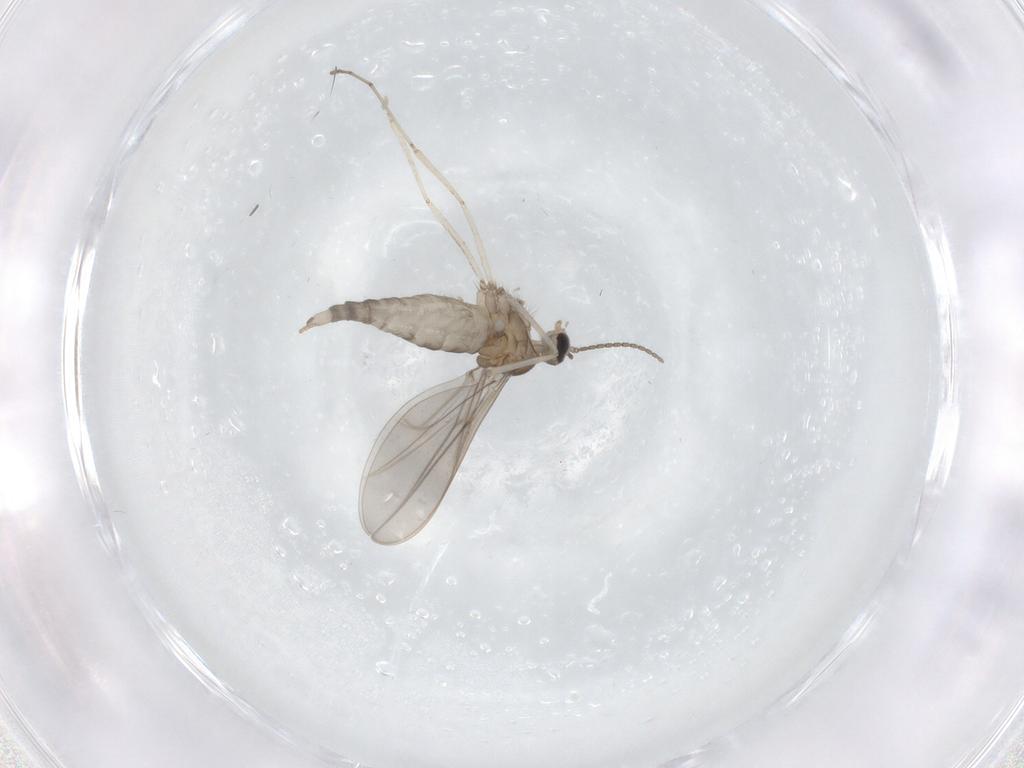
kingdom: Animalia
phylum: Arthropoda
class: Insecta
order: Diptera
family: Cecidomyiidae
